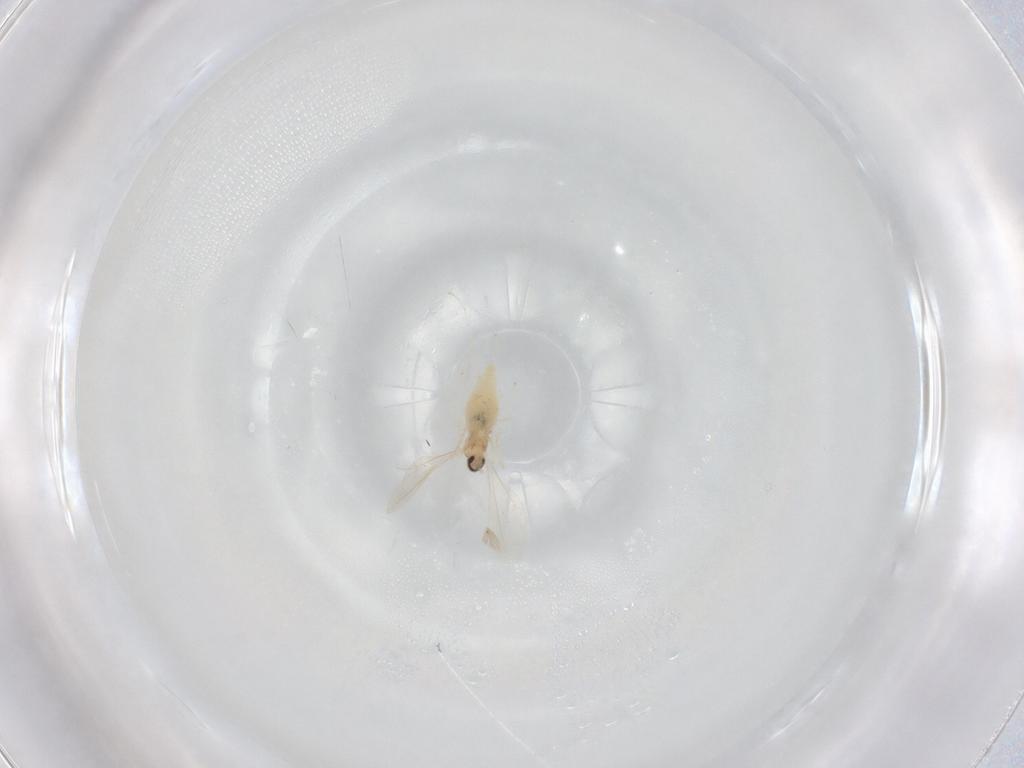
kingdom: Animalia
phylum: Arthropoda
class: Insecta
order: Diptera
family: Cecidomyiidae
